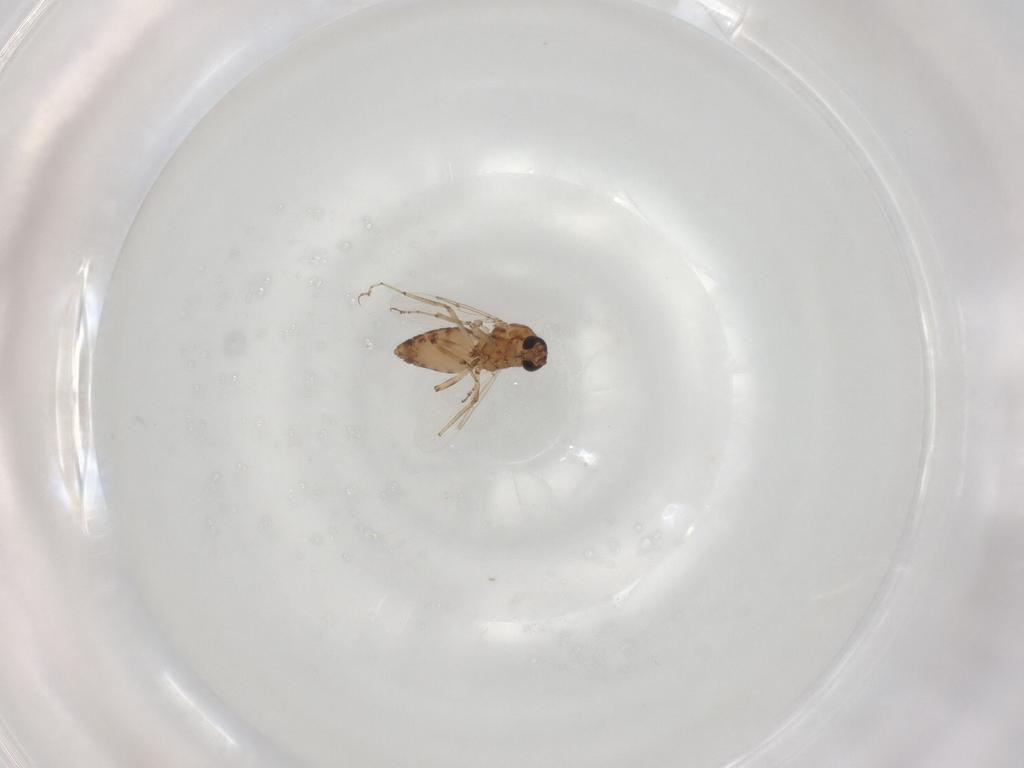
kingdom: Animalia
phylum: Arthropoda
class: Insecta
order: Diptera
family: Ceratopogonidae
